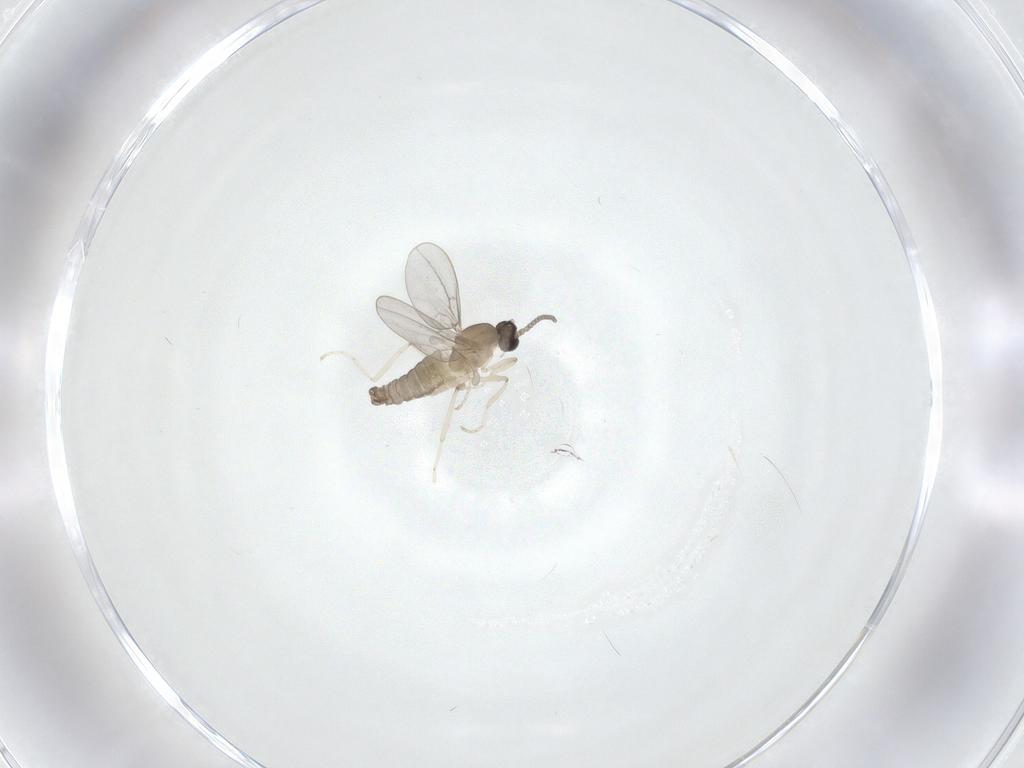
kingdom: Animalia
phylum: Arthropoda
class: Insecta
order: Diptera
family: Cecidomyiidae
